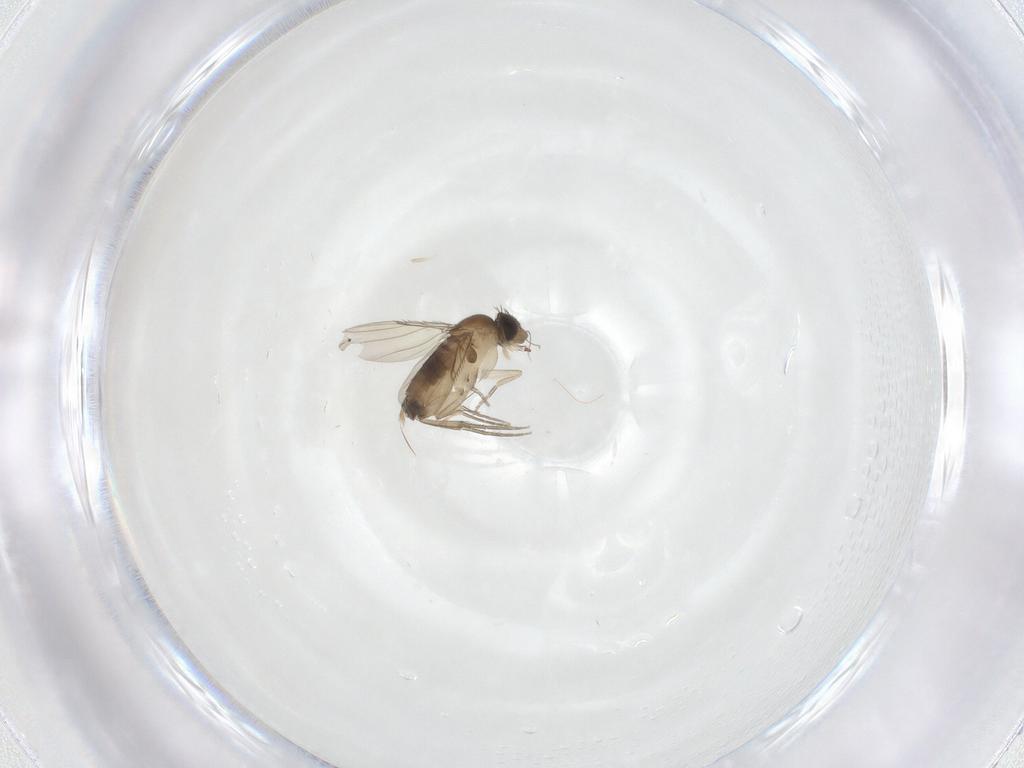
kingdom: Animalia
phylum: Arthropoda
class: Insecta
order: Diptera
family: Phoridae
